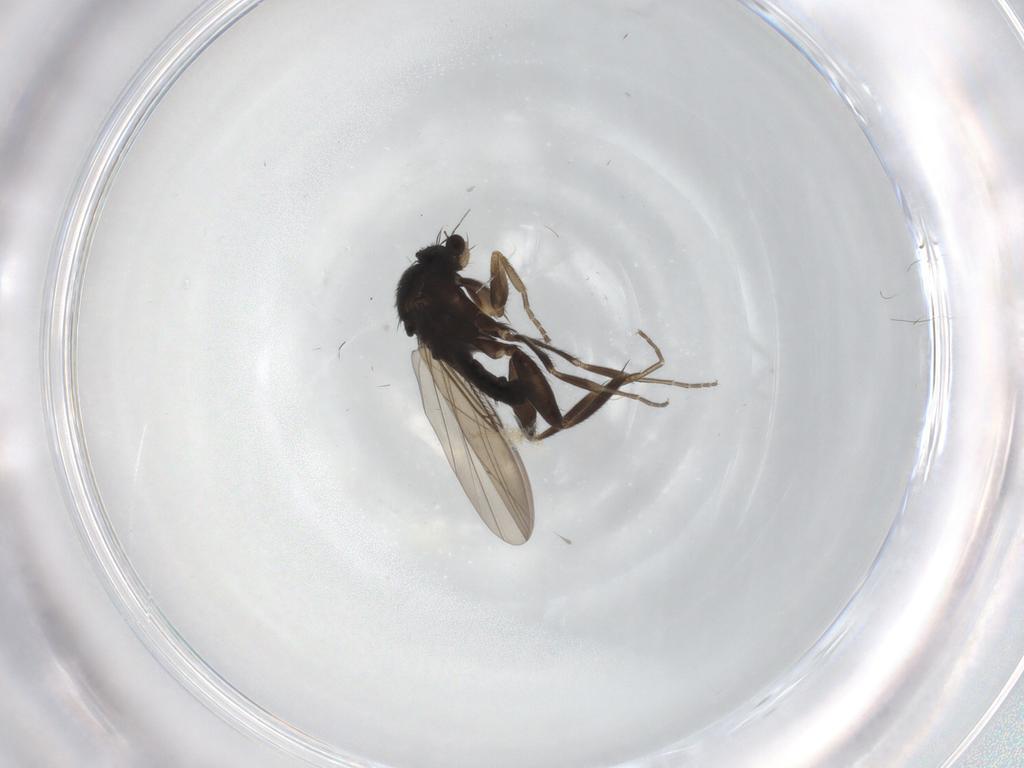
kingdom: Animalia
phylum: Arthropoda
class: Insecta
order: Diptera
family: Phoridae
